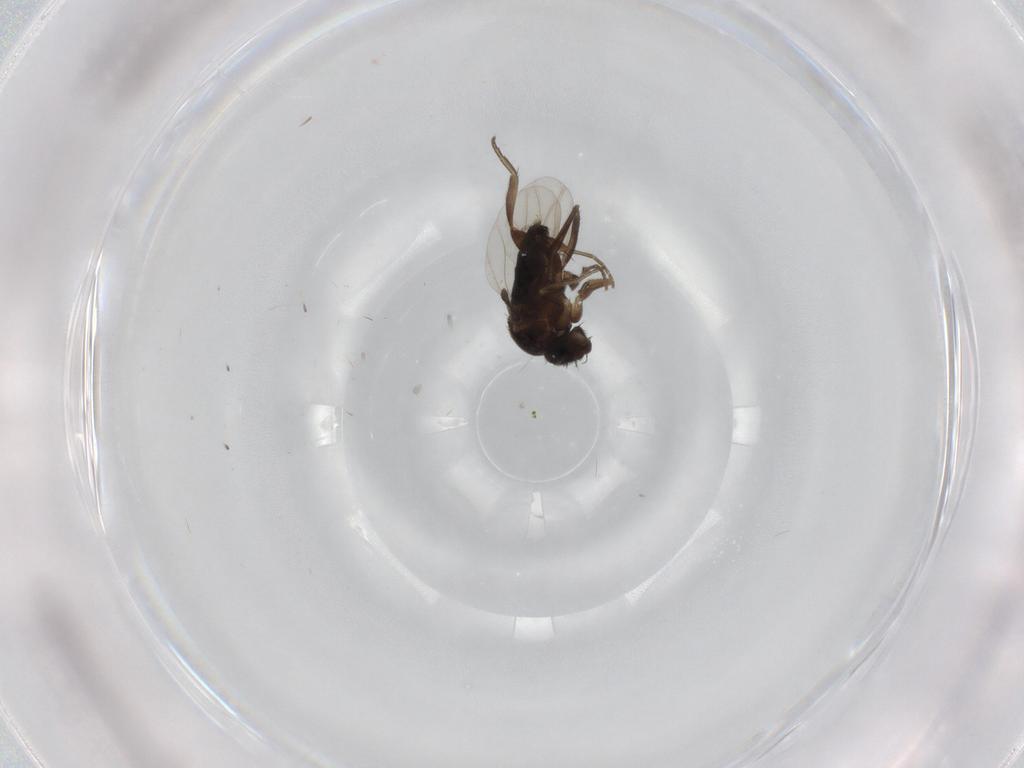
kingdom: Animalia
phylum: Arthropoda
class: Insecta
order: Diptera
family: Phoridae
